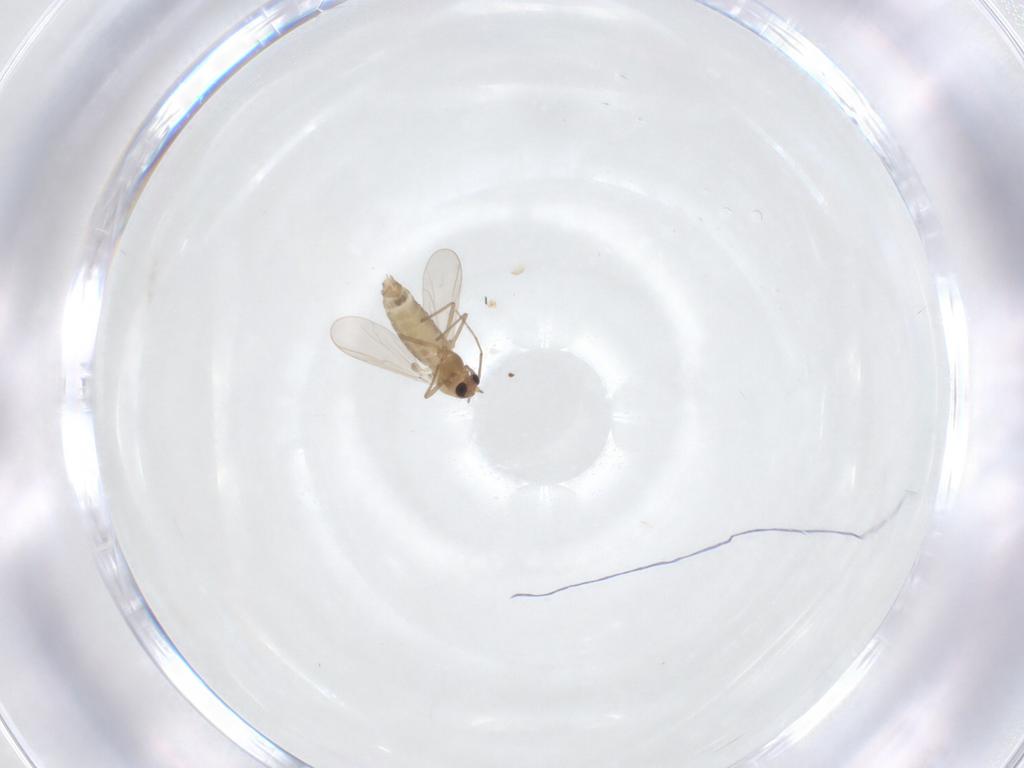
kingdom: Animalia
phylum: Arthropoda
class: Insecta
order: Diptera
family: Chironomidae
